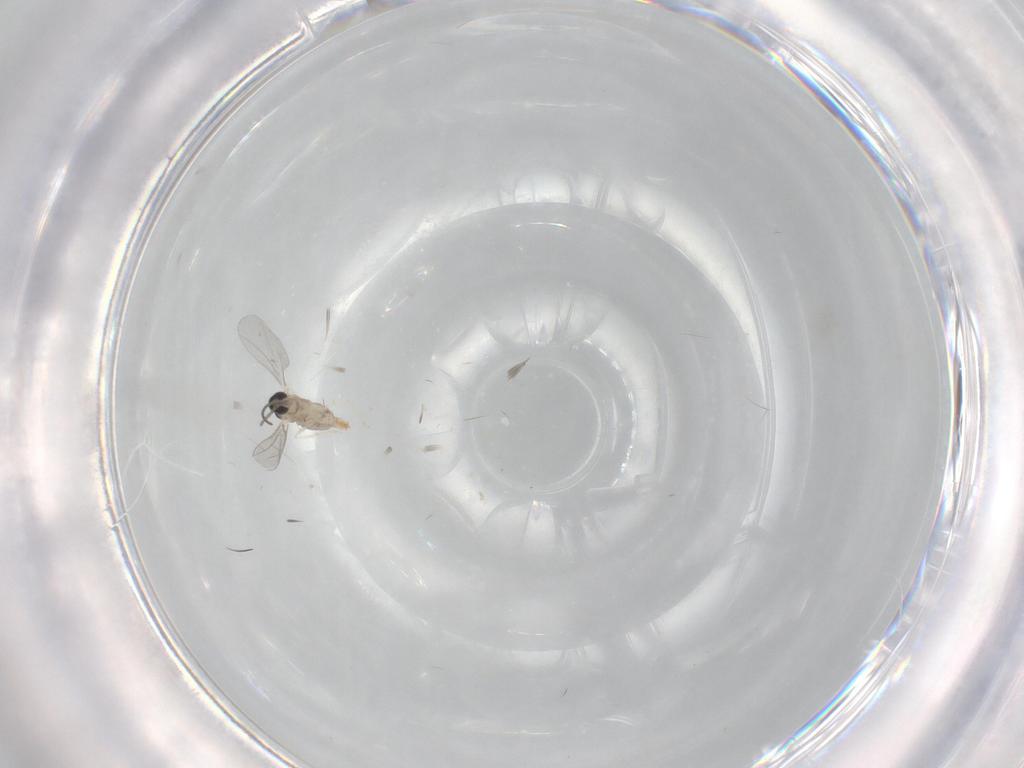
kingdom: Animalia
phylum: Arthropoda
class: Insecta
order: Diptera
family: Cecidomyiidae
